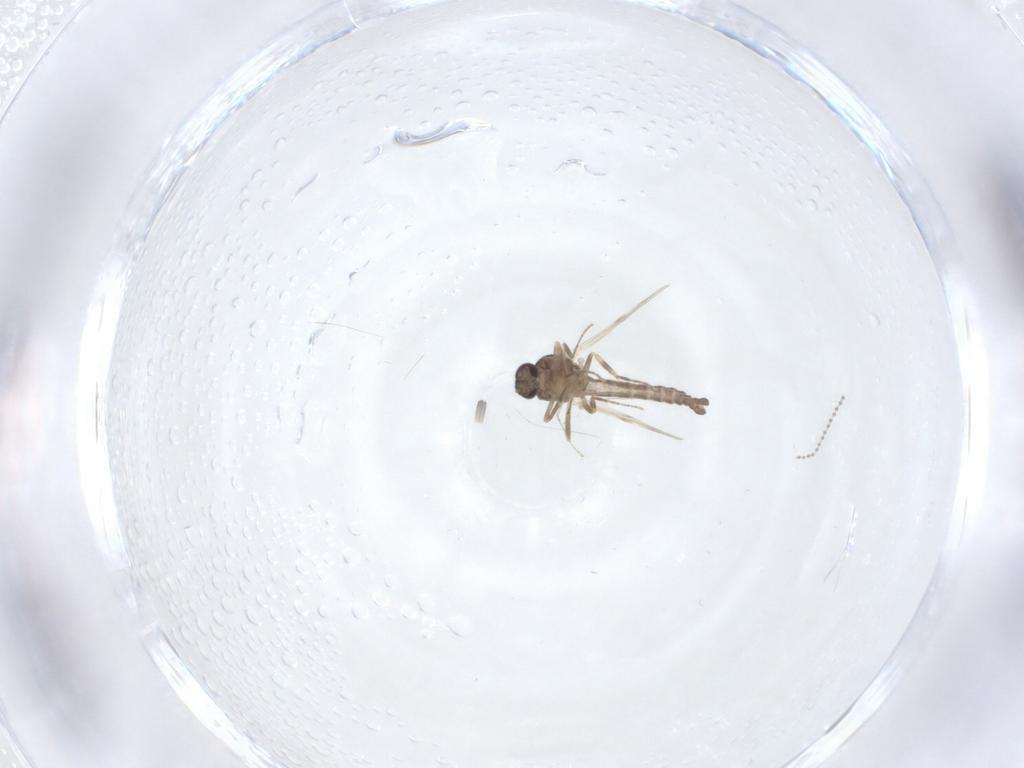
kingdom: Animalia
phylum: Arthropoda
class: Insecta
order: Diptera
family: Ceratopogonidae
